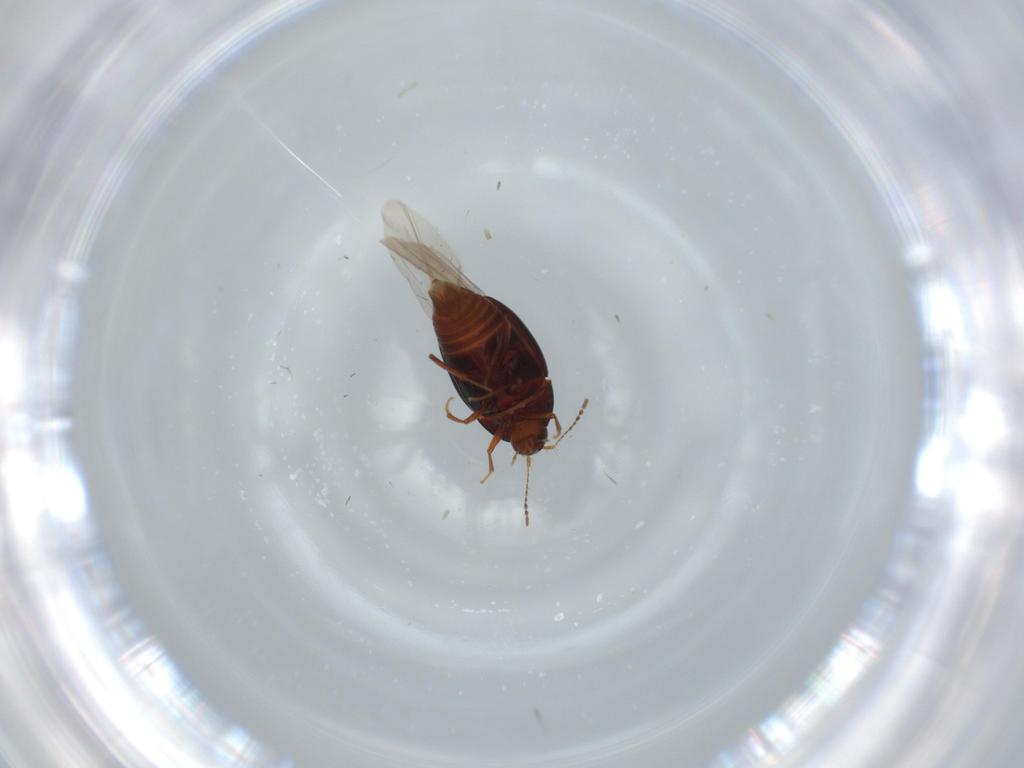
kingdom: Animalia
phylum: Arthropoda
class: Insecta
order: Coleoptera
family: Staphylinidae
